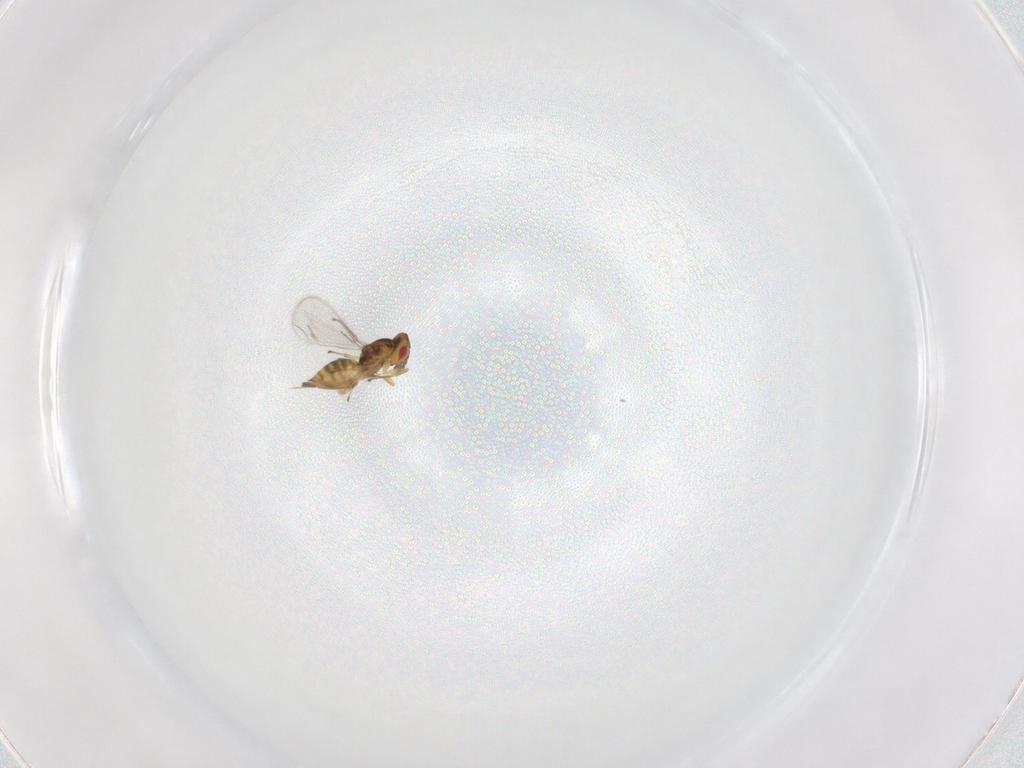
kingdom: Animalia
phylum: Arthropoda
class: Insecta
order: Hymenoptera
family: Eulophidae
